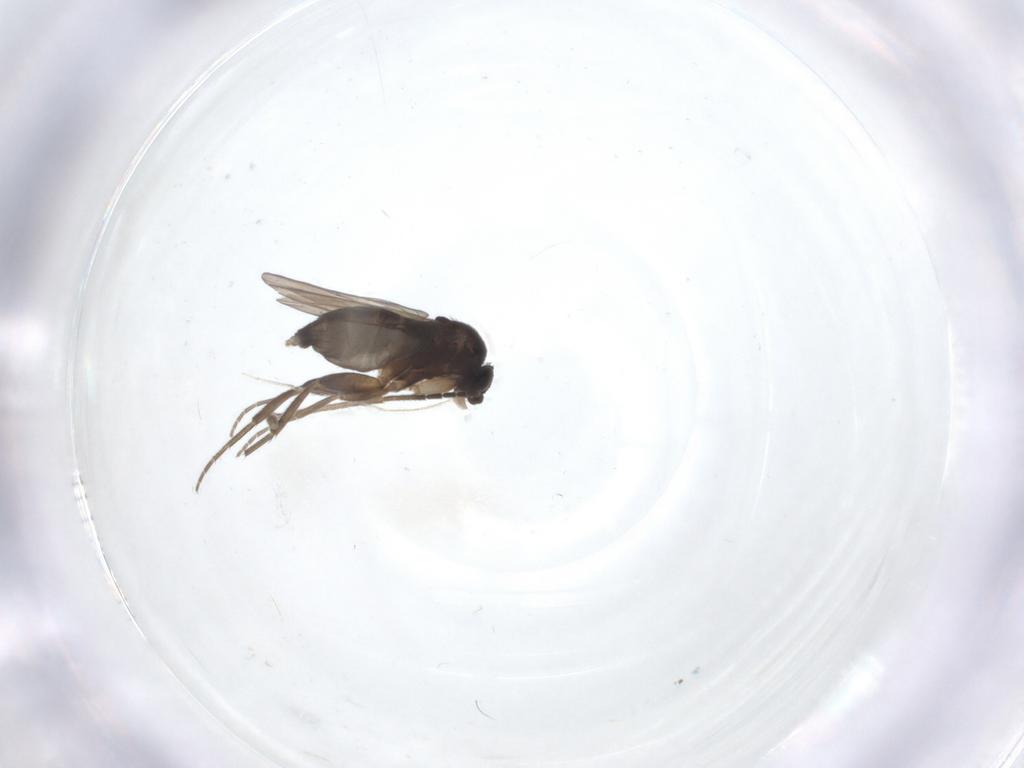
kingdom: Animalia
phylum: Arthropoda
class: Insecta
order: Diptera
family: Phoridae
